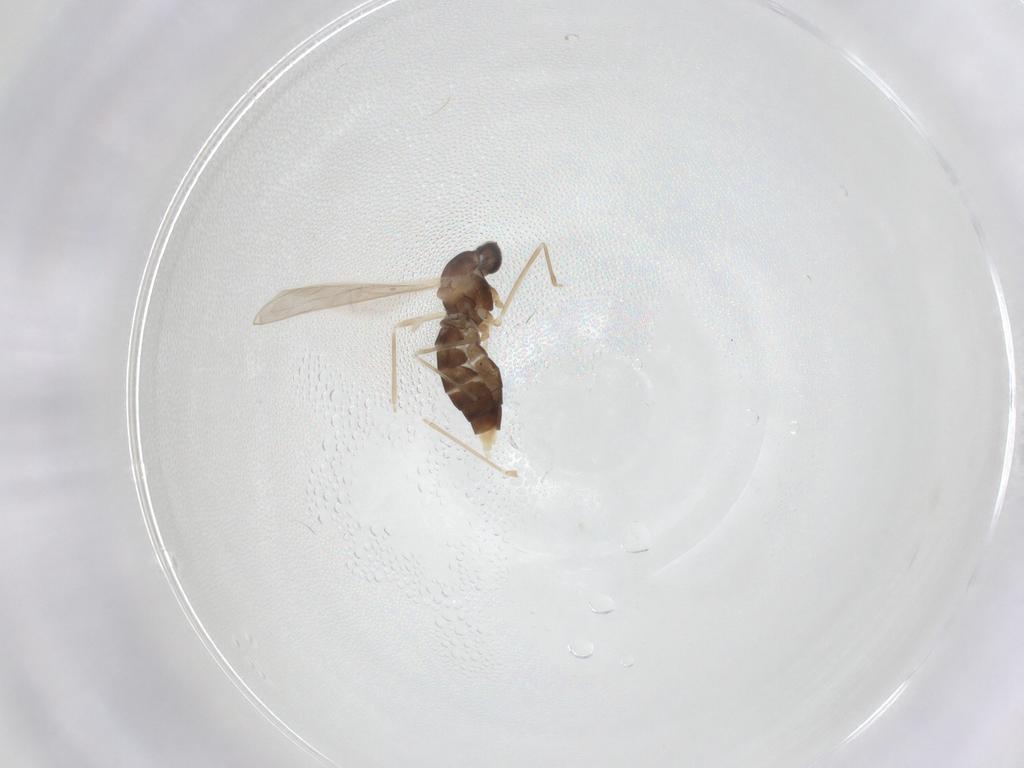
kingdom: Animalia
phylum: Arthropoda
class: Insecta
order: Diptera
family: Cecidomyiidae
